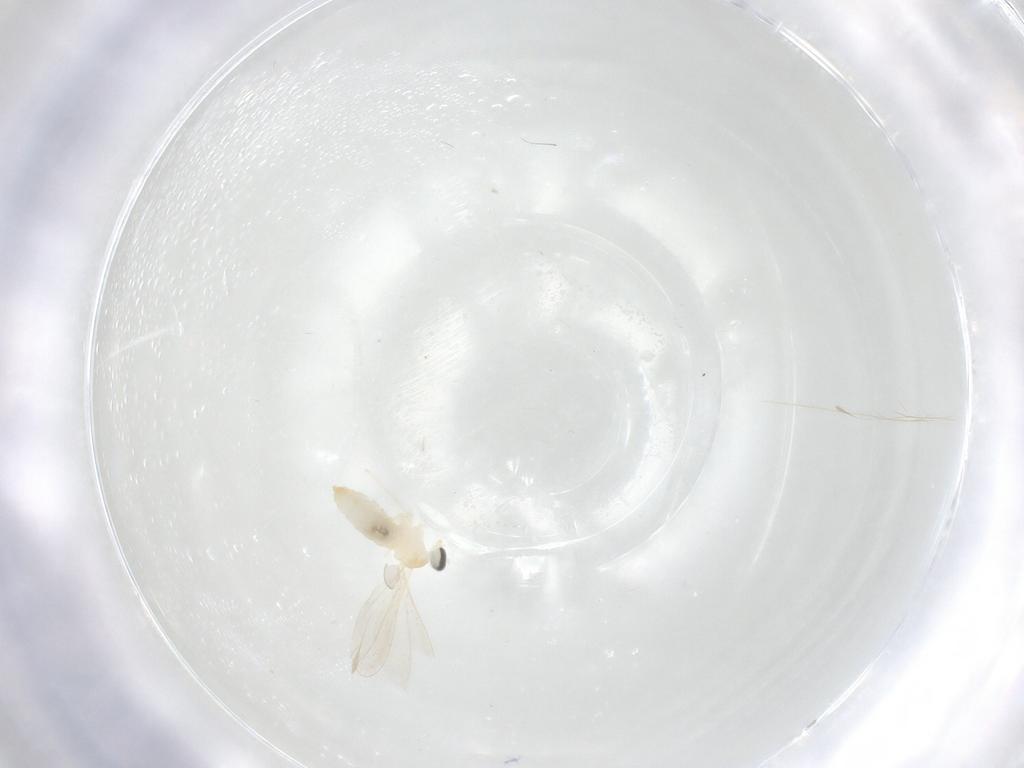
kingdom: Animalia
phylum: Arthropoda
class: Insecta
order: Diptera
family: Cecidomyiidae
